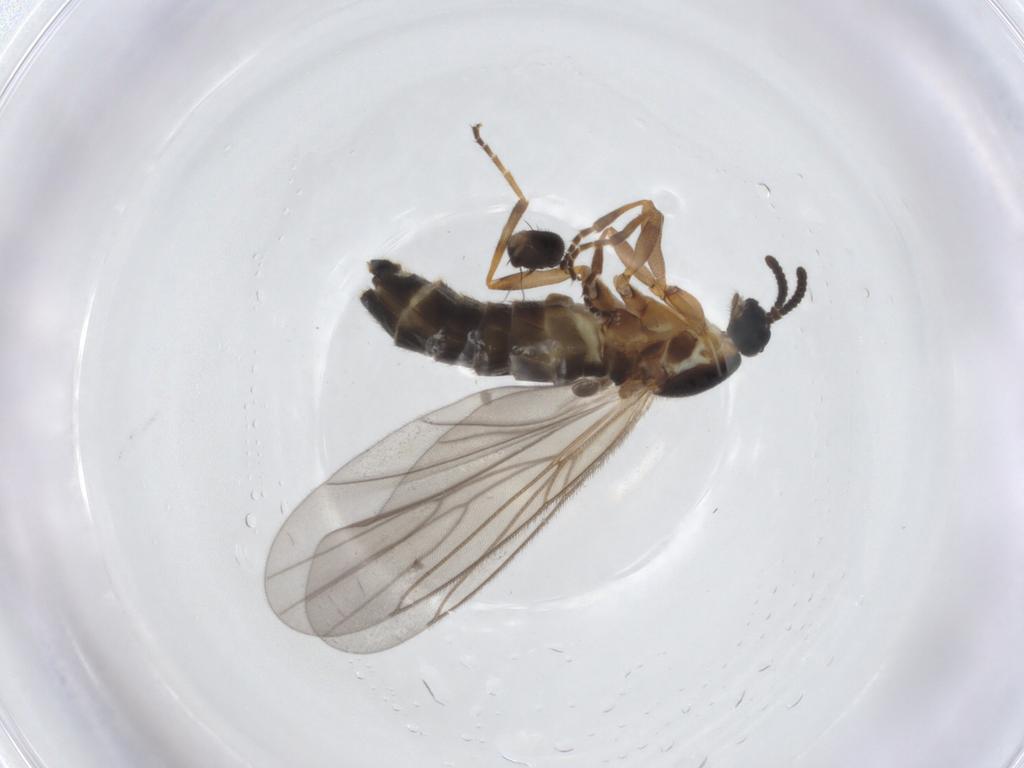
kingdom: Animalia
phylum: Arthropoda
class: Insecta
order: Diptera
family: Scatopsidae
